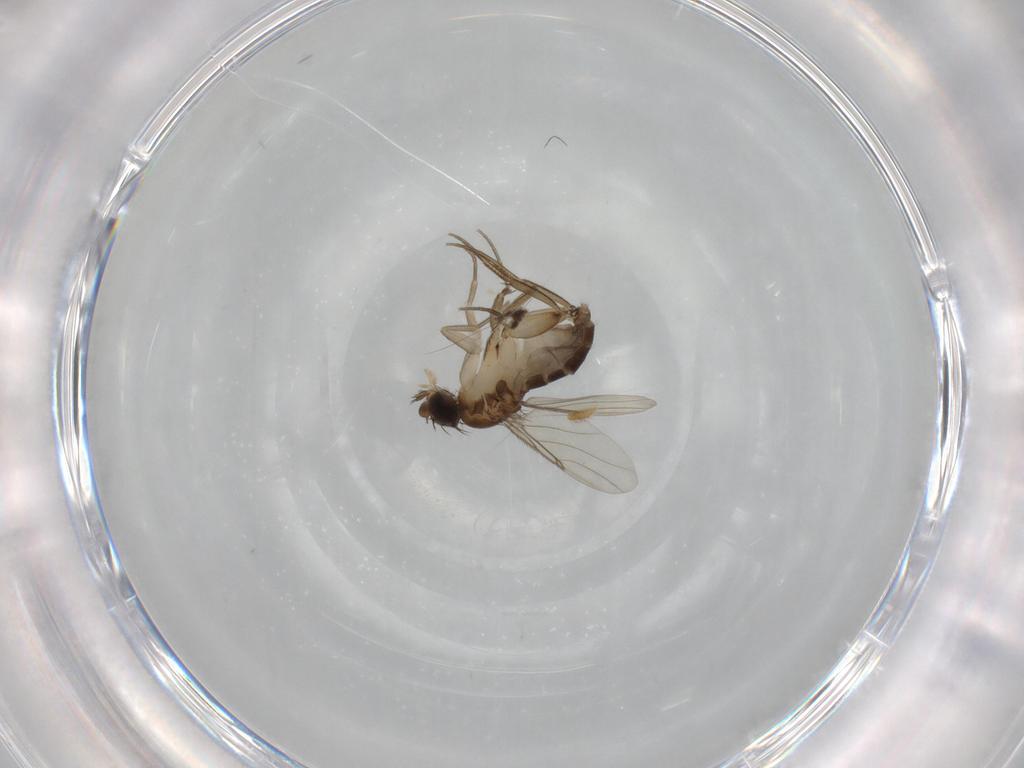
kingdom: Animalia
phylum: Arthropoda
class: Insecta
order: Diptera
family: Phoridae
